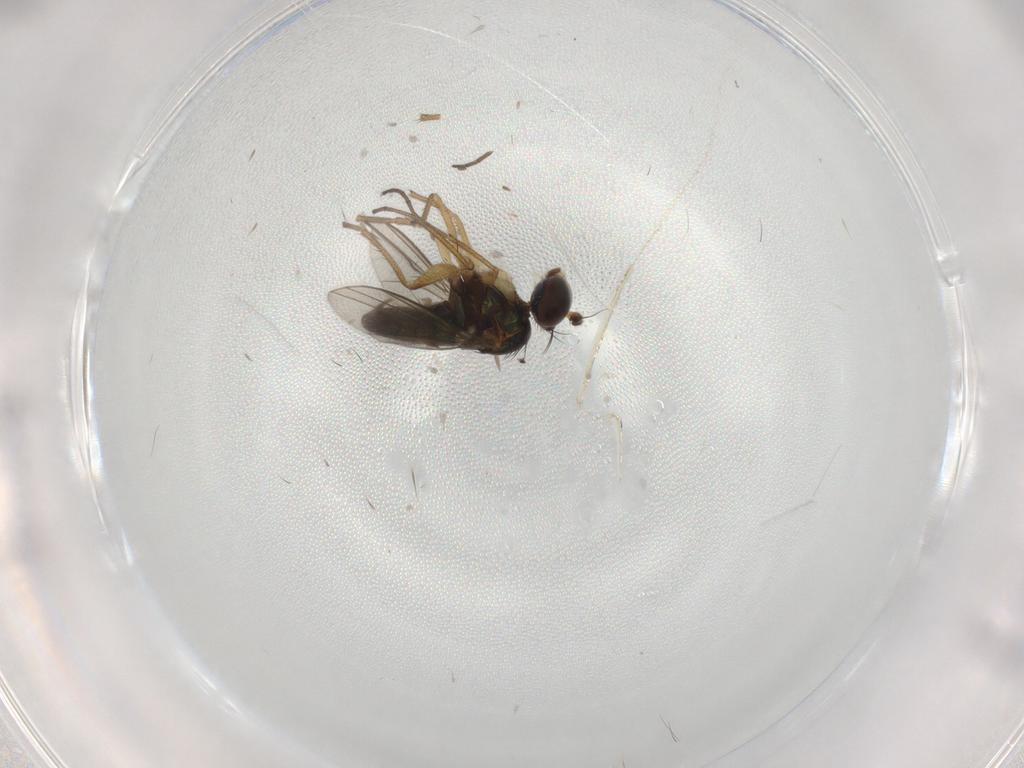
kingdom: Animalia
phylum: Arthropoda
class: Insecta
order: Diptera
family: Dolichopodidae
